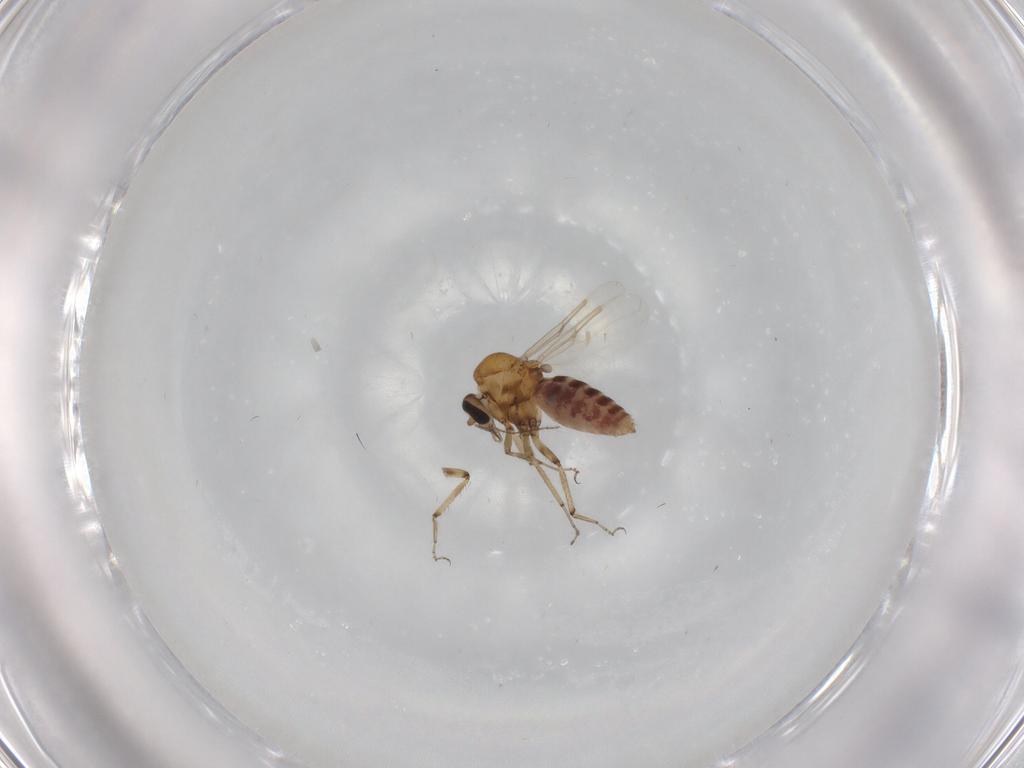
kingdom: Animalia
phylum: Arthropoda
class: Insecta
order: Diptera
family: Ceratopogonidae
